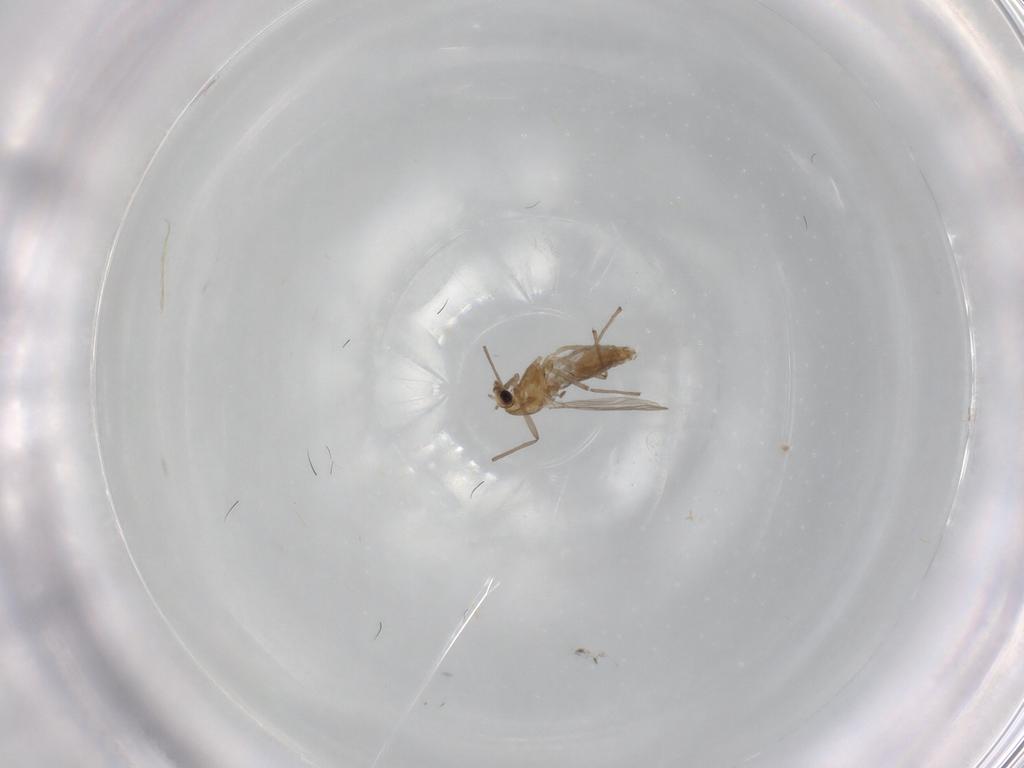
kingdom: Animalia
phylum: Arthropoda
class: Insecta
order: Diptera
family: Chironomidae
